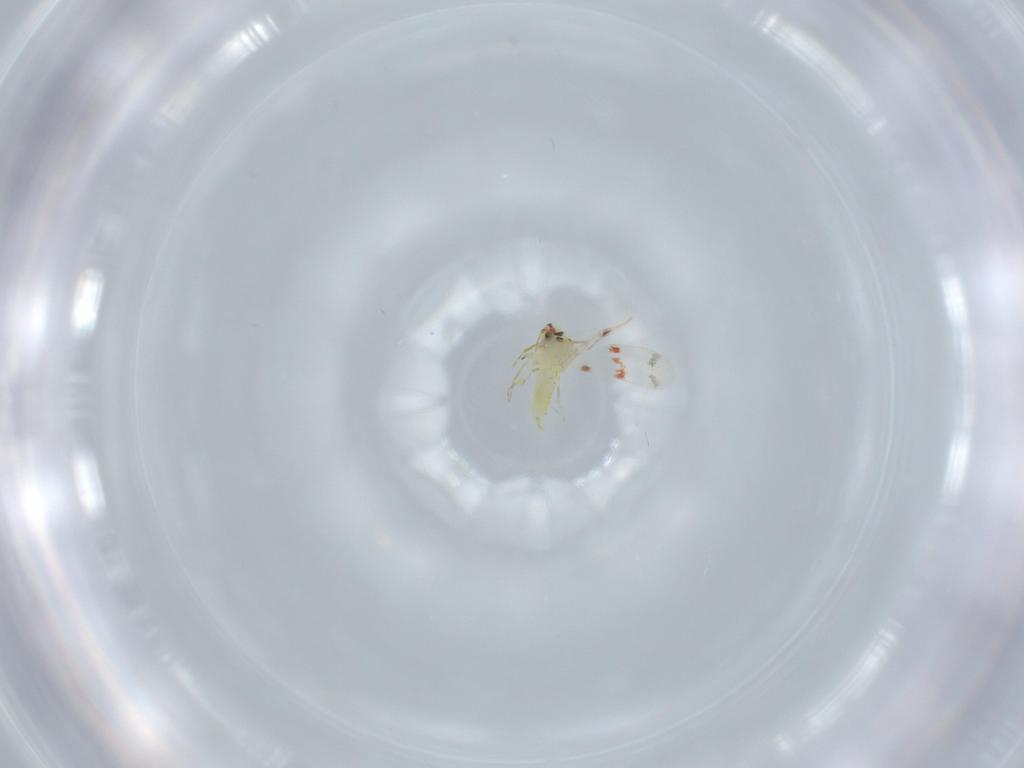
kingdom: Animalia
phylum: Arthropoda
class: Insecta
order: Hemiptera
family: Aleyrodidae
